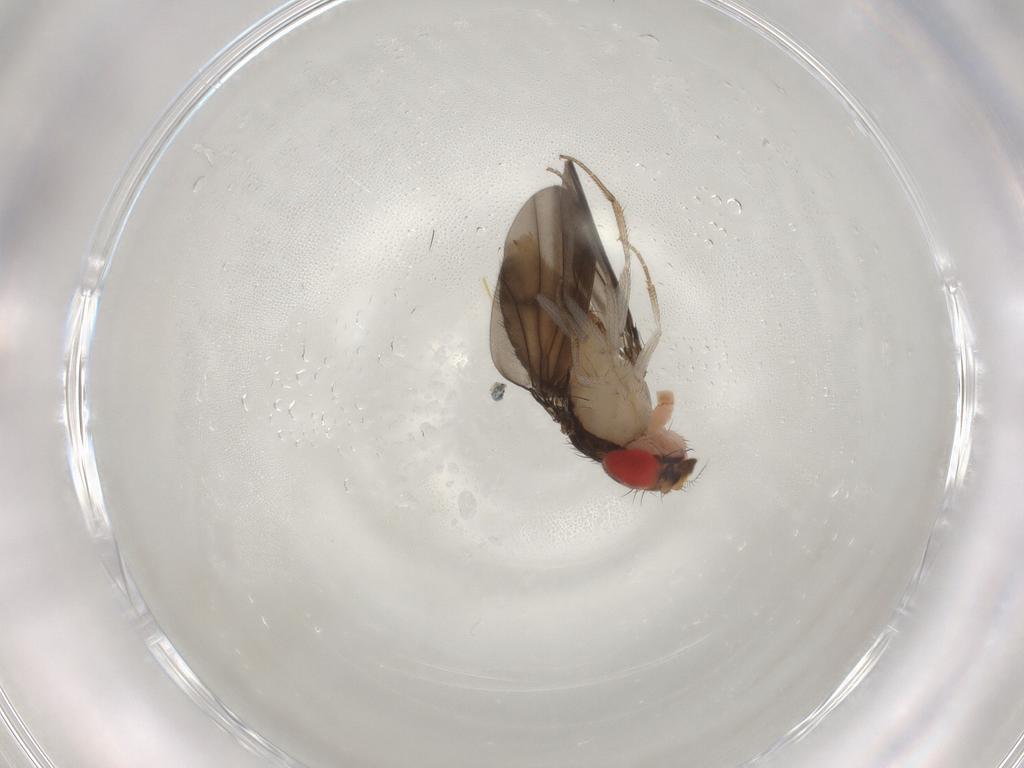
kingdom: Animalia
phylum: Arthropoda
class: Insecta
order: Diptera
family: Drosophilidae
